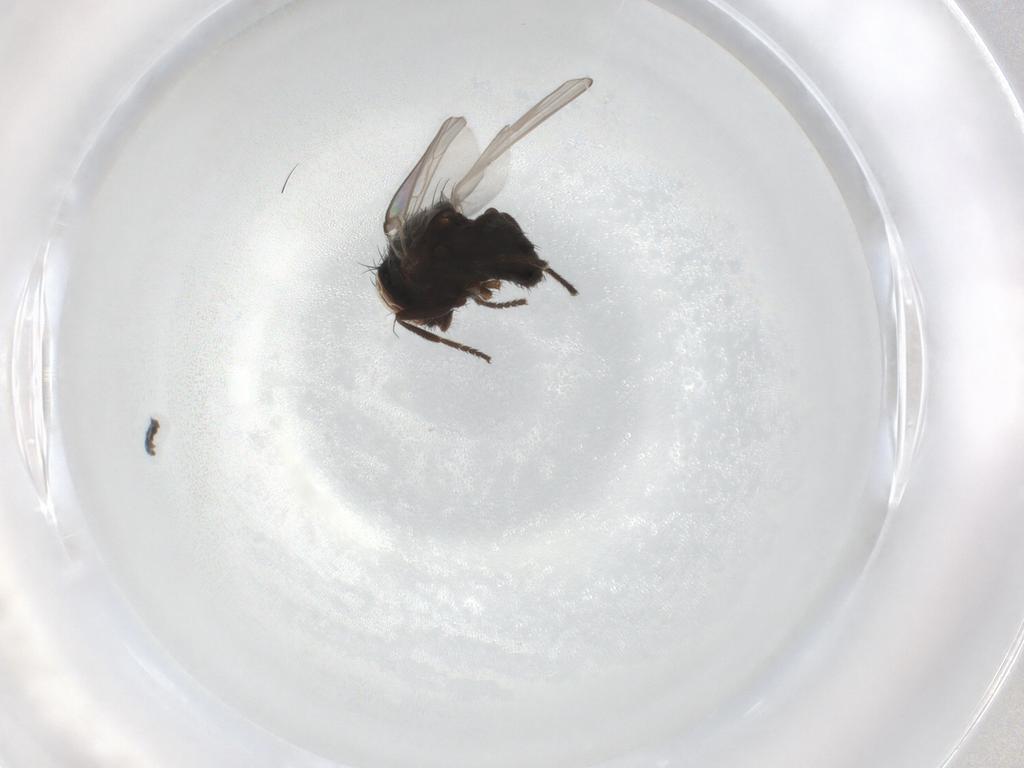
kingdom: Animalia
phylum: Arthropoda
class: Insecta
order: Diptera
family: Milichiidae
